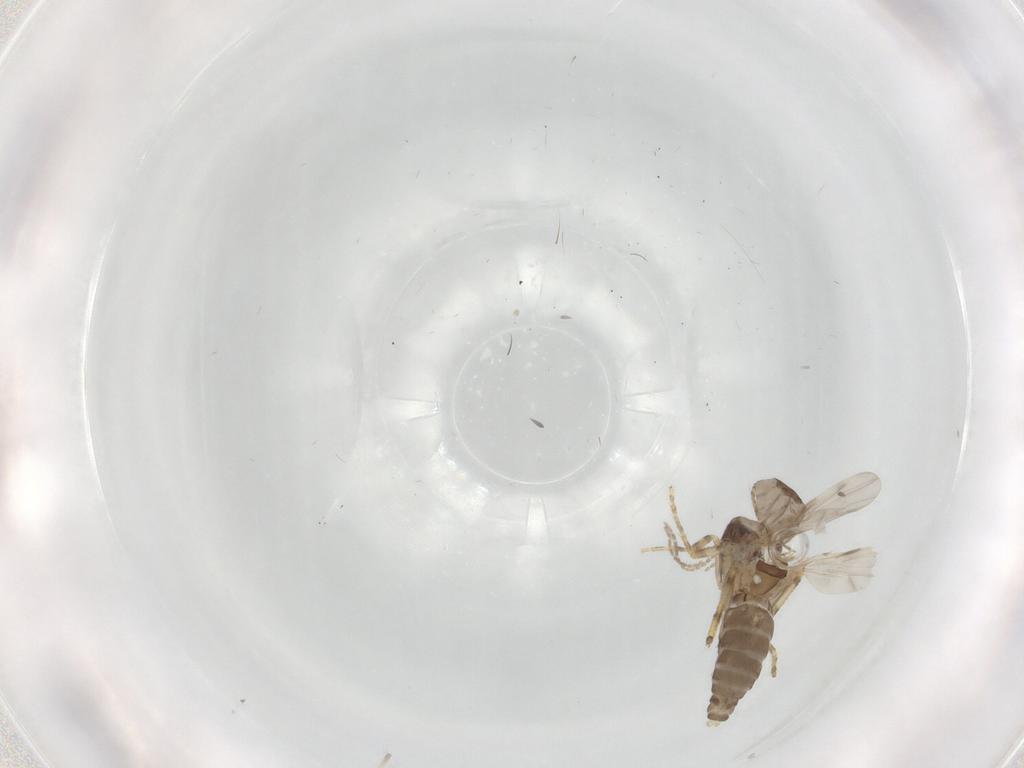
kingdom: Animalia
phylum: Arthropoda
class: Insecta
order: Diptera
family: Ceratopogonidae
